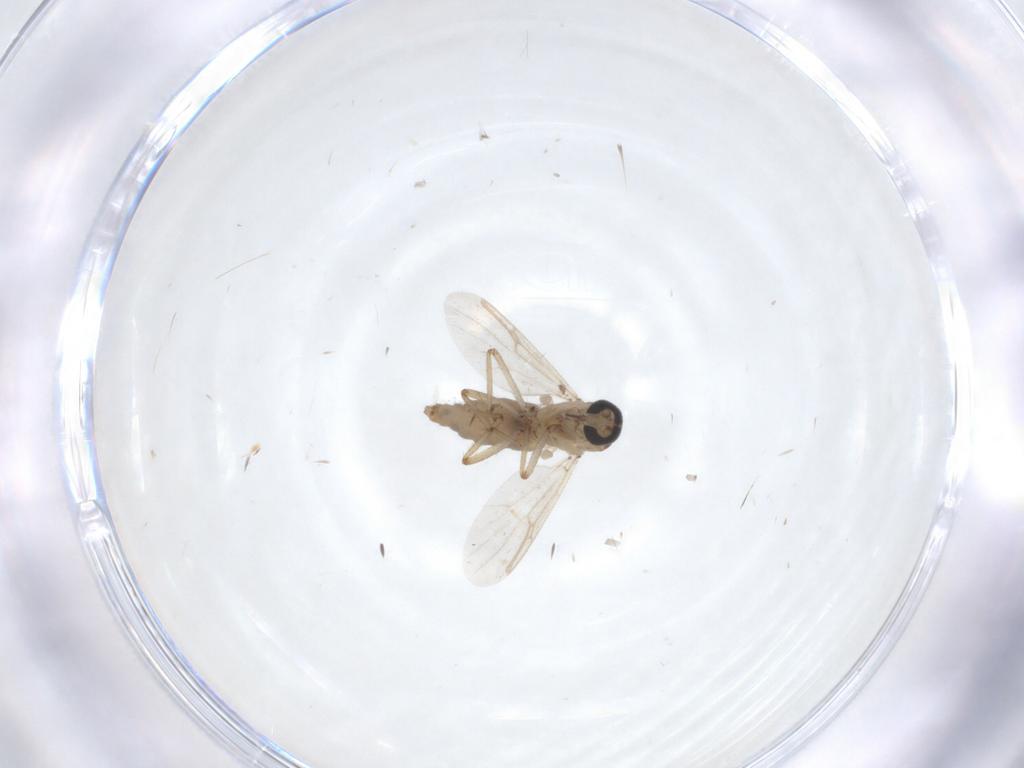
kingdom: Animalia
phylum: Arthropoda
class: Insecta
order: Diptera
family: Ceratopogonidae
